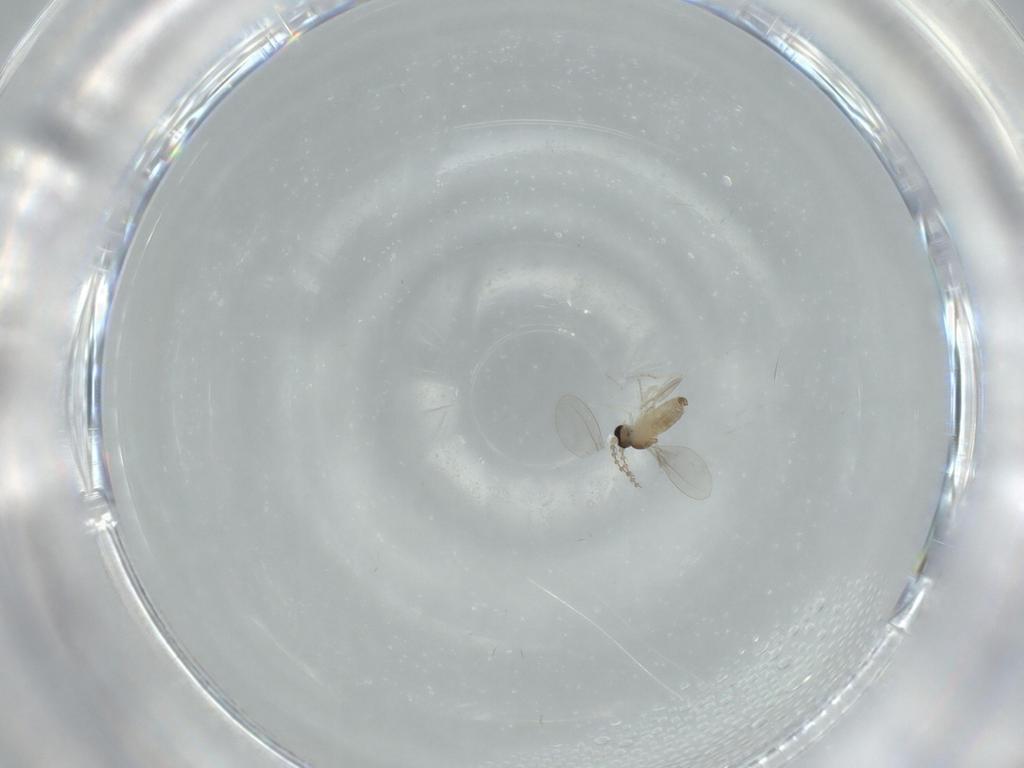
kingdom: Animalia
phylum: Arthropoda
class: Insecta
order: Diptera
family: Cecidomyiidae
